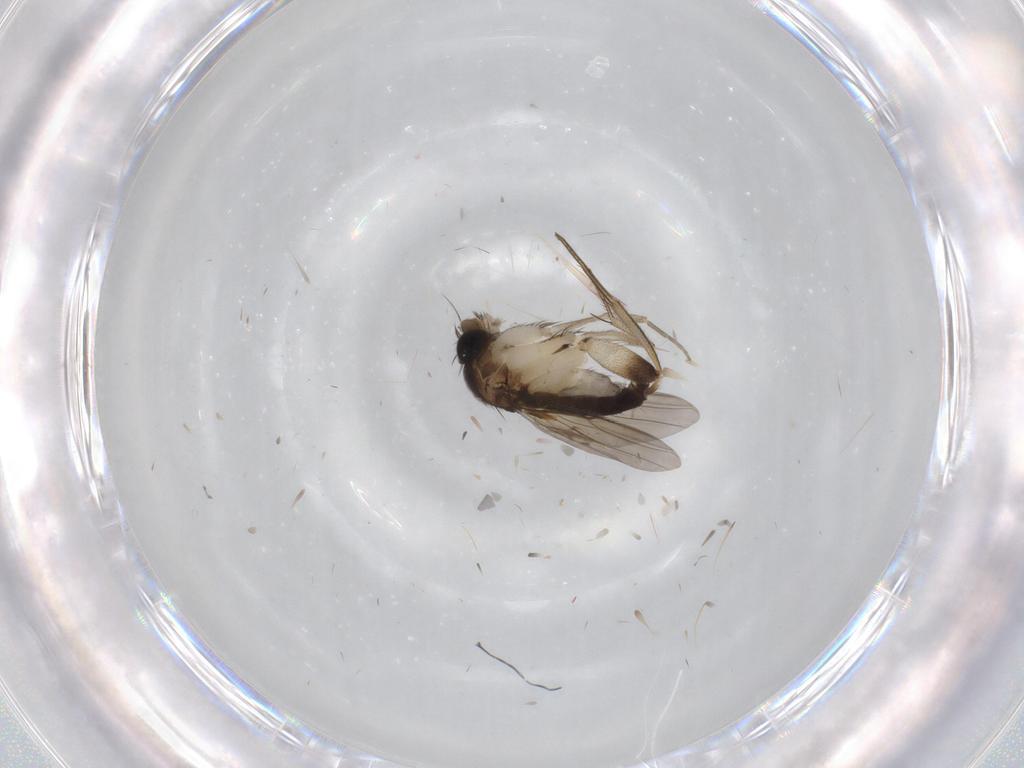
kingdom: Animalia
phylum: Arthropoda
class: Insecta
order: Diptera
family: Phoridae
